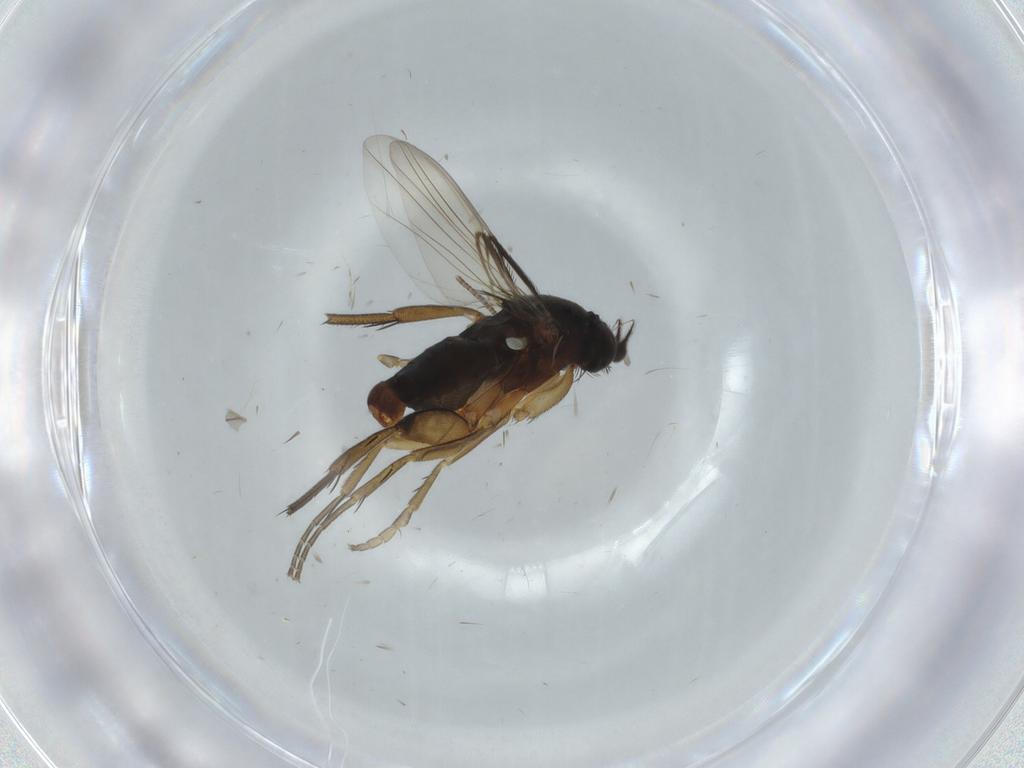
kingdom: Animalia
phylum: Arthropoda
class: Insecta
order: Diptera
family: Phoridae
